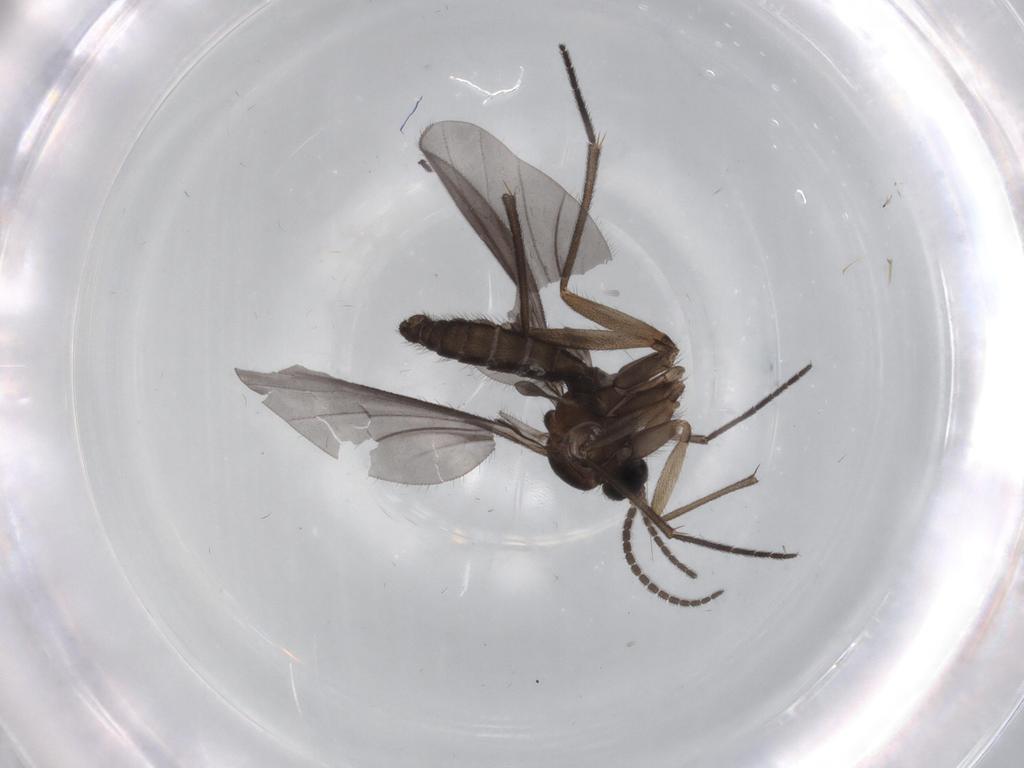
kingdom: Animalia
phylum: Arthropoda
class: Insecta
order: Diptera
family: Sciaridae
